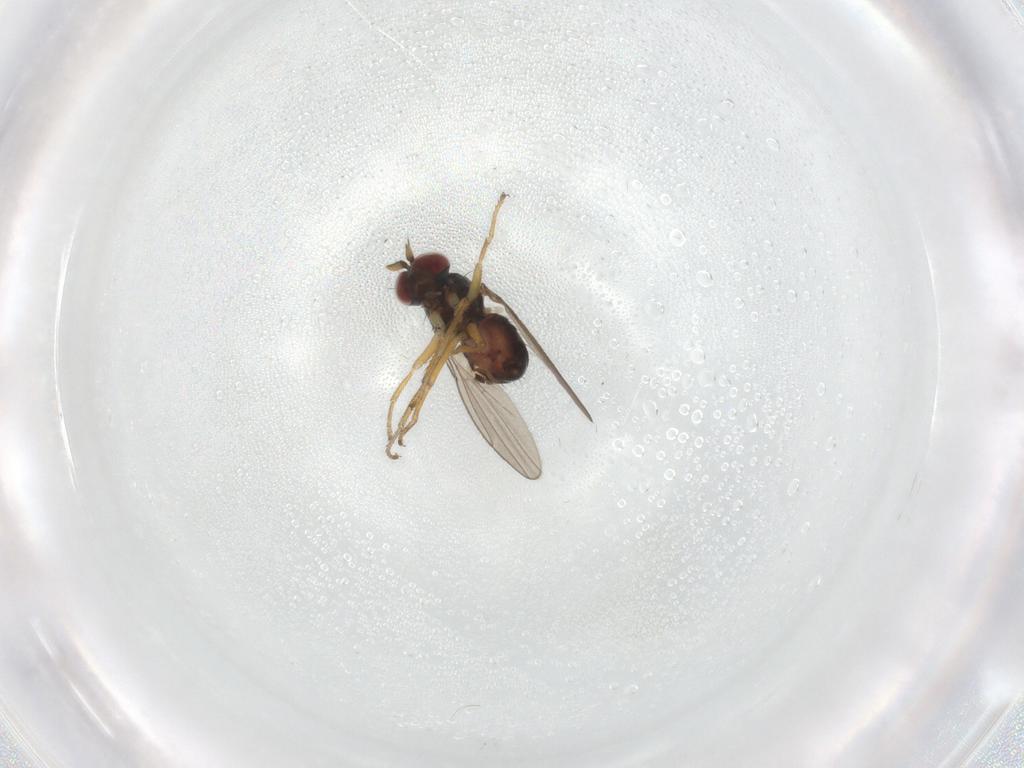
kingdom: Animalia
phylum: Arthropoda
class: Insecta
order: Diptera
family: Ephydridae
